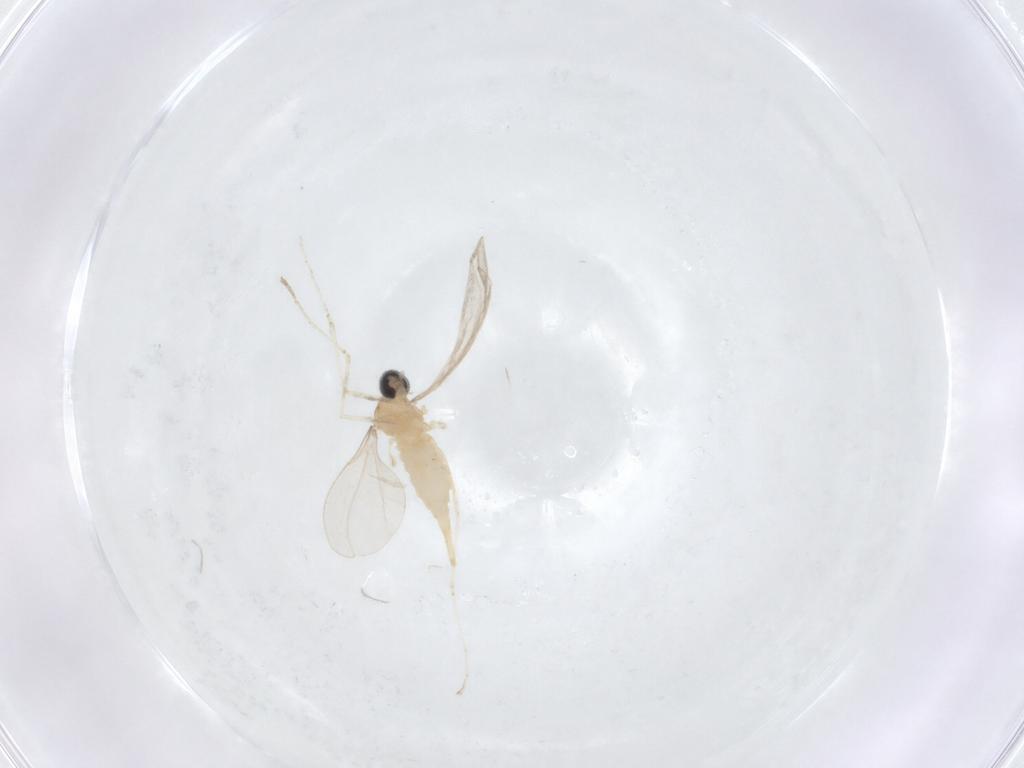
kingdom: Animalia
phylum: Arthropoda
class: Insecta
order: Diptera
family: Cecidomyiidae
